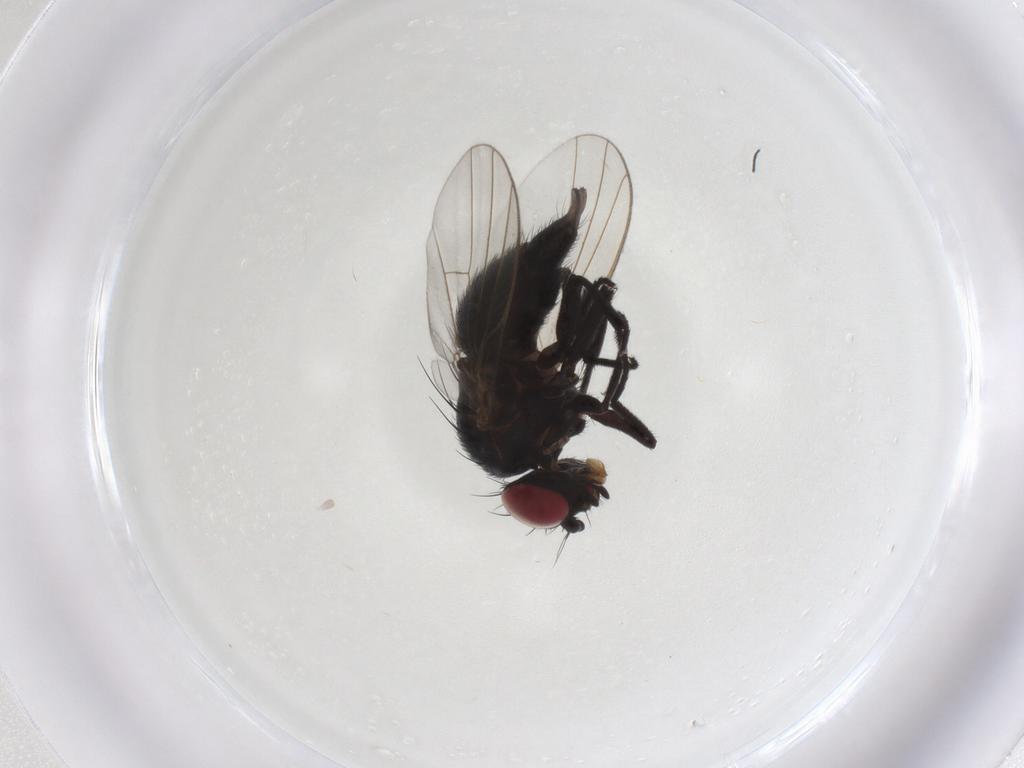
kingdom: Animalia
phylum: Arthropoda
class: Insecta
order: Diptera
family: Agromyzidae
